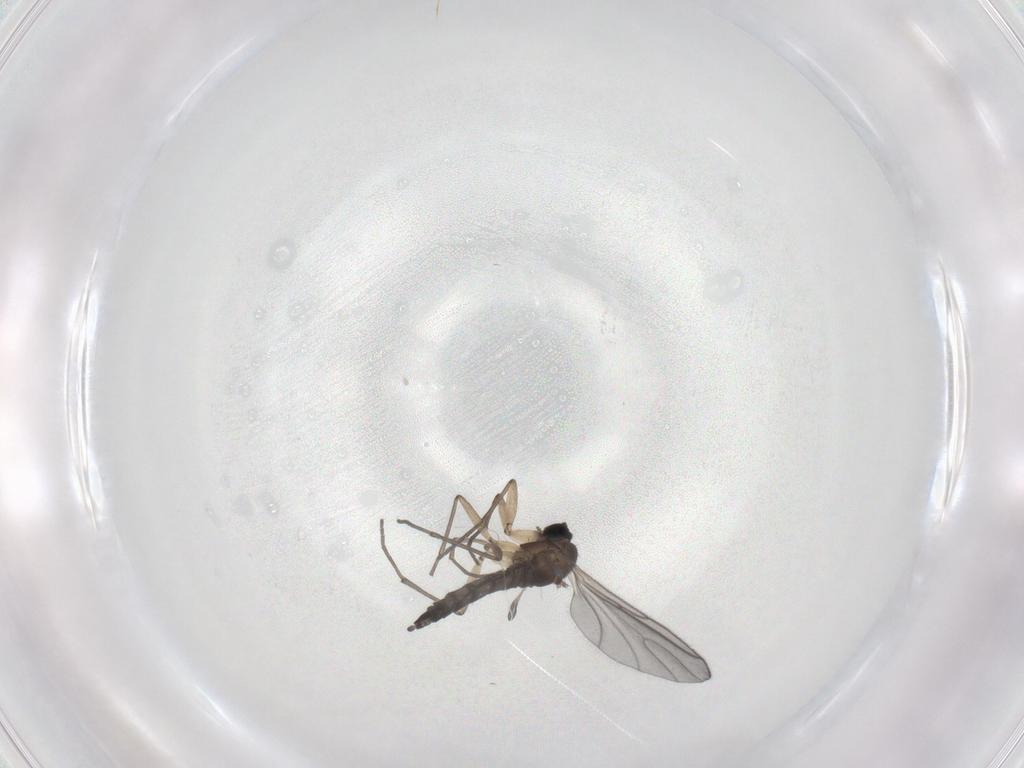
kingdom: Animalia
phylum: Arthropoda
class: Insecta
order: Diptera
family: Sciaridae
